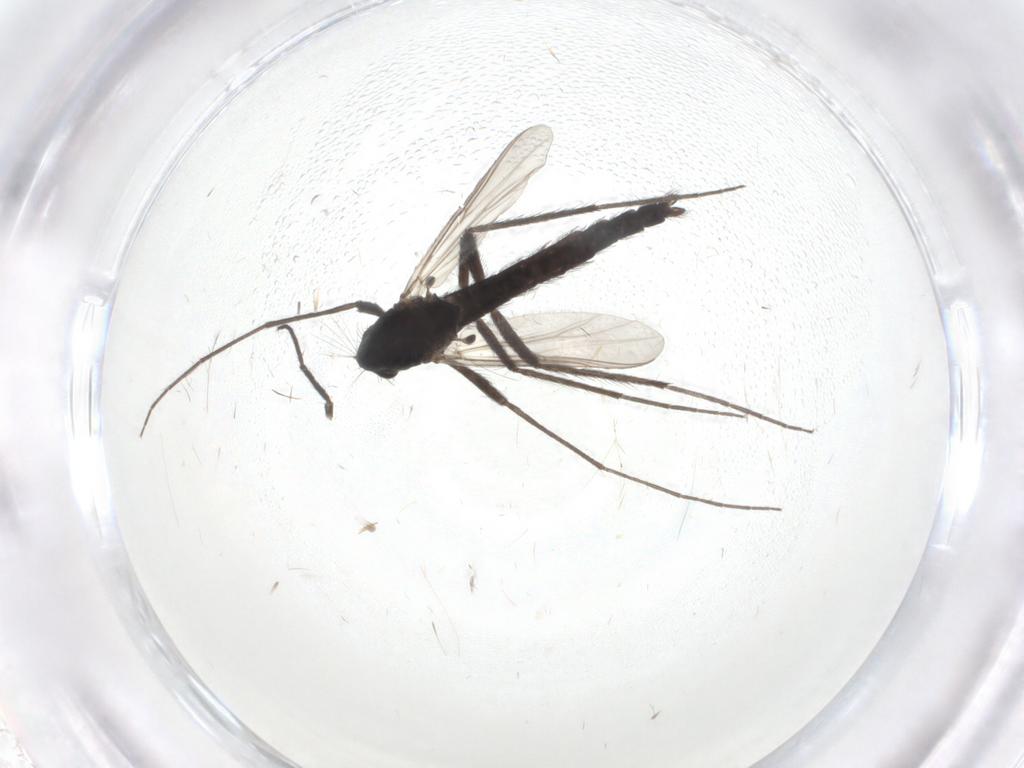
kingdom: Animalia
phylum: Arthropoda
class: Insecta
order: Diptera
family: Chironomidae
